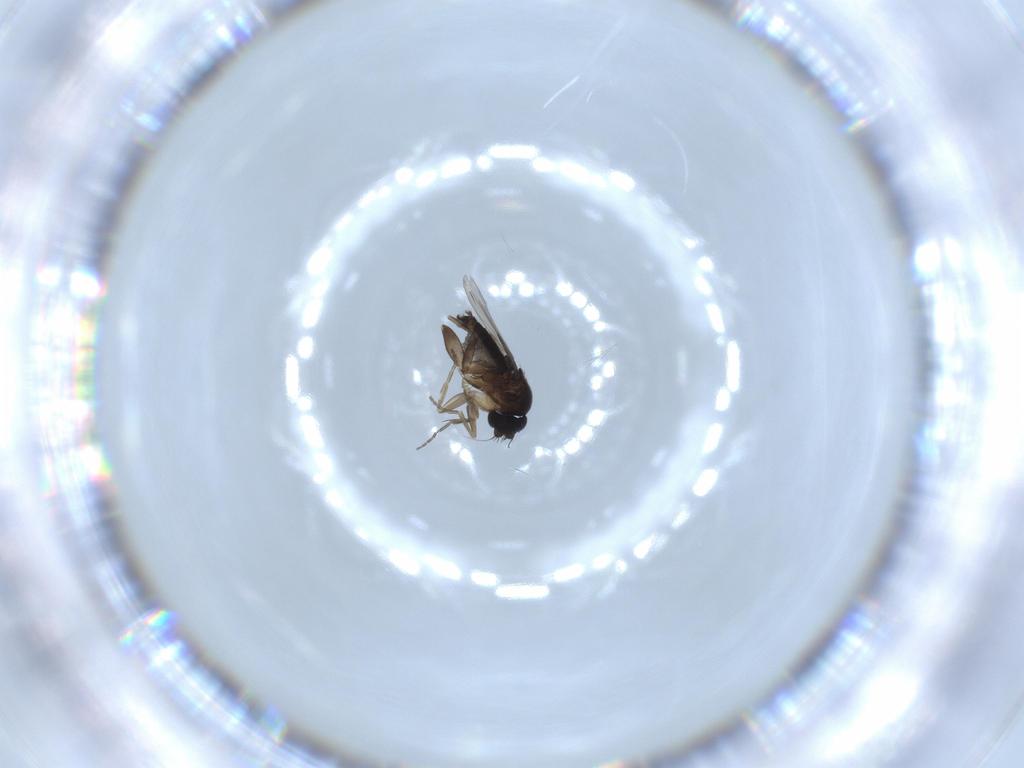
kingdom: Animalia
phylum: Arthropoda
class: Insecta
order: Diptera
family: Phoridae
